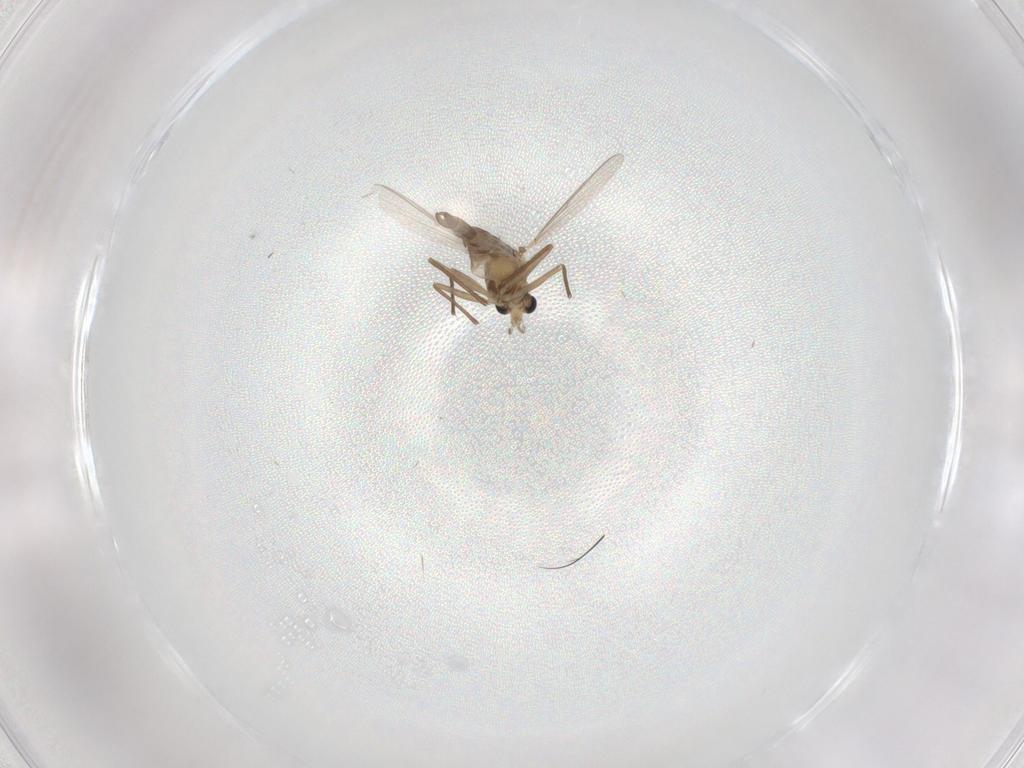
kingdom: Animalia
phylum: Arthropoda
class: Insecta
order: Diptera
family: Chironomidae
